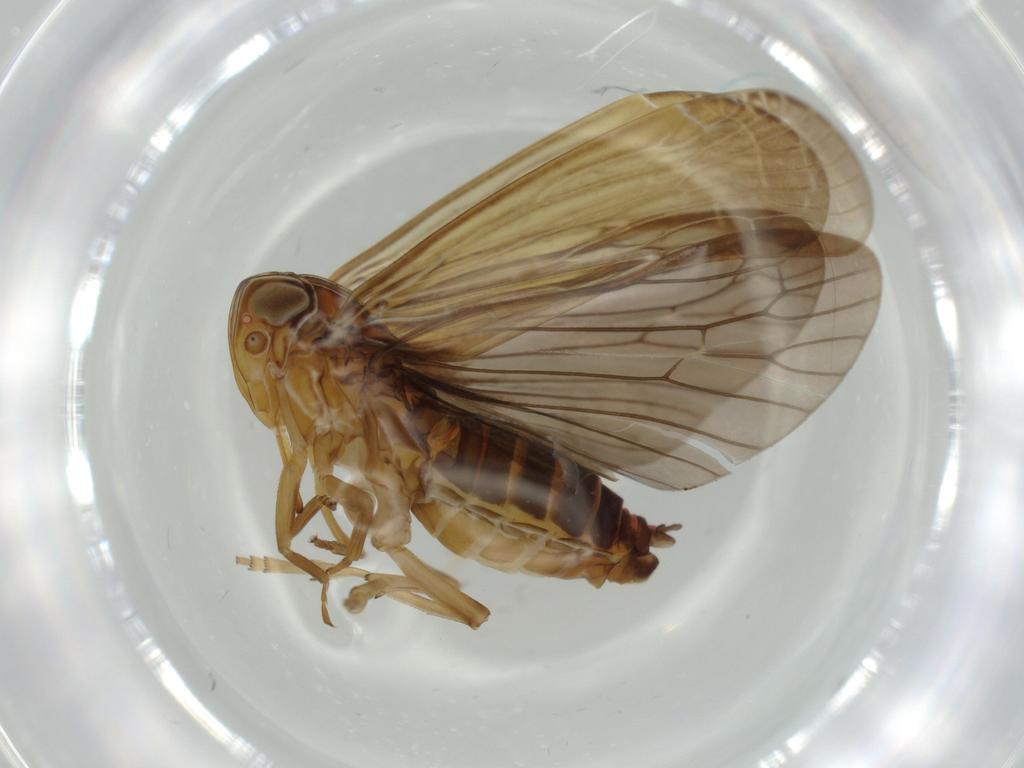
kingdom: Animalia
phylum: Arthropoda
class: Insecta
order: Hemiptera
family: Achilidae
